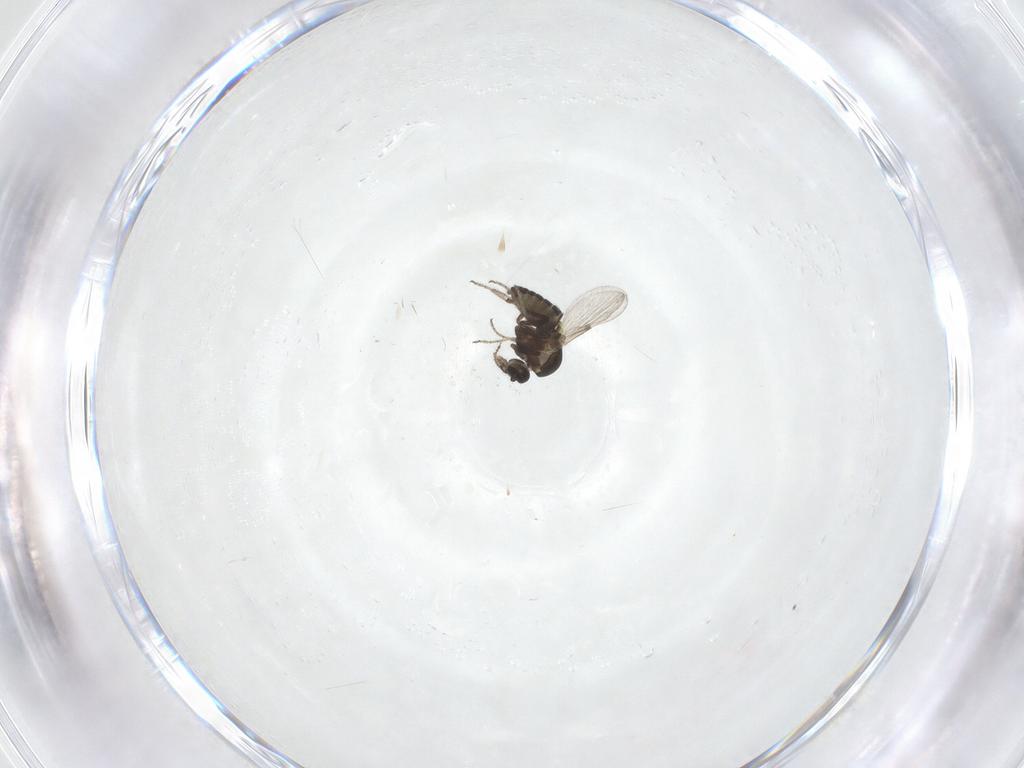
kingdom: Animalia
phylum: Arthropoda
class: Insecta
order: Diptera
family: Ceratopogonidae
